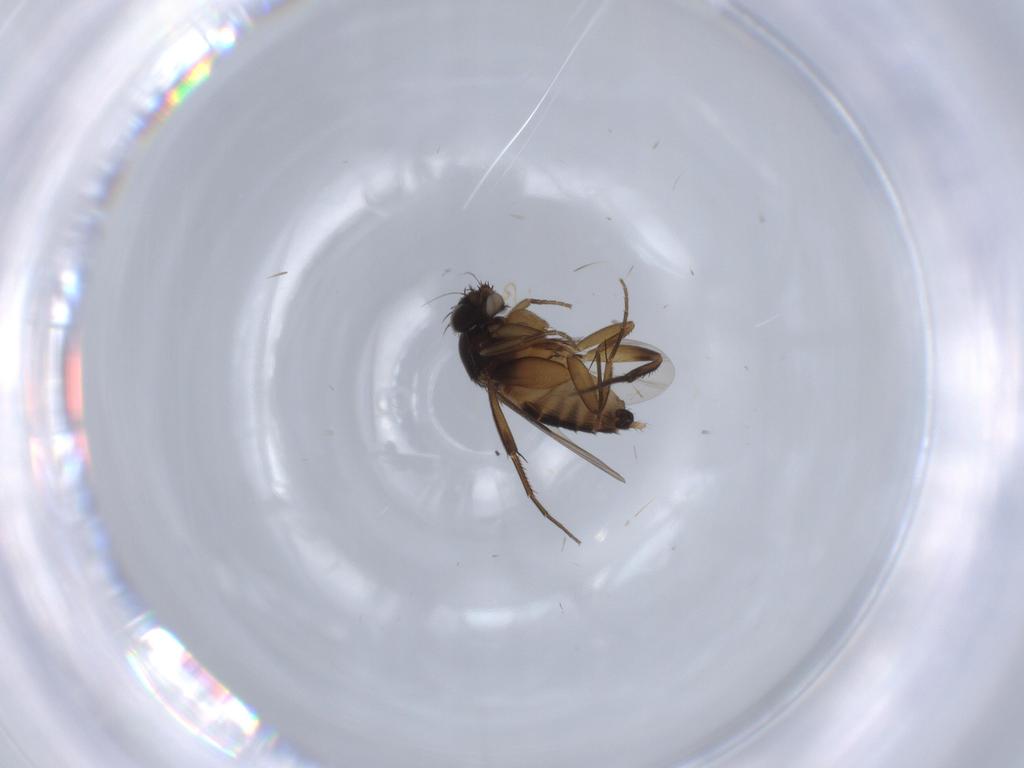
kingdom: Animalia
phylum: Arthropoda
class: Insecta
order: Diptera
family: Phoridae
